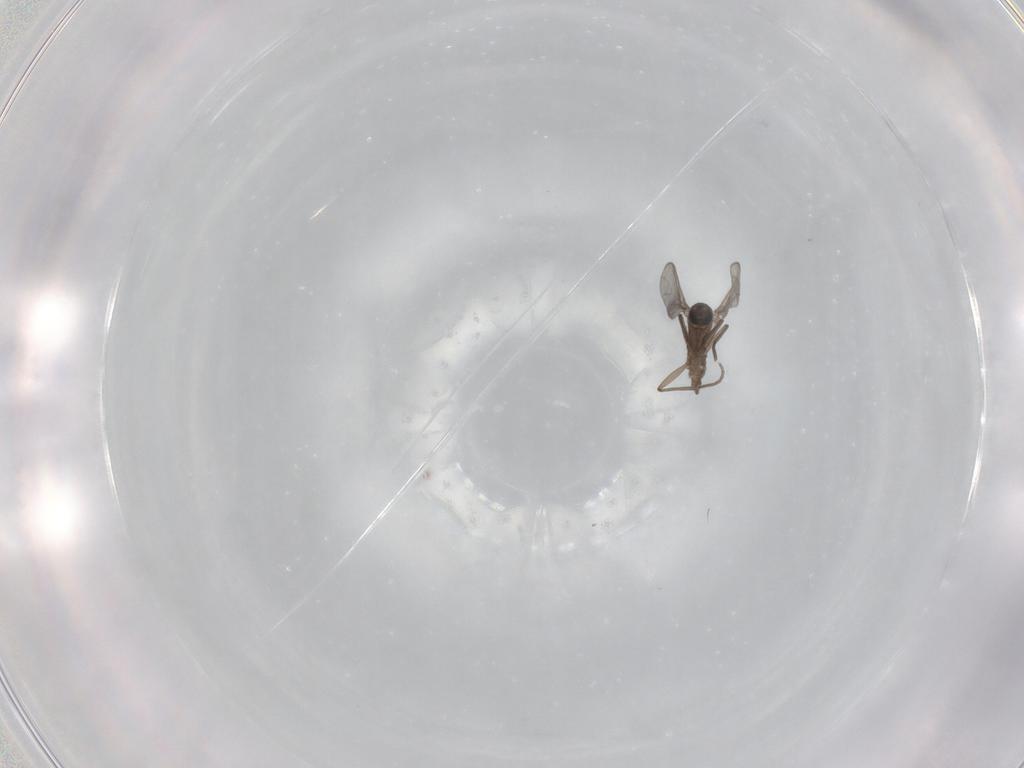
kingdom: Animalia
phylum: Arthropoda
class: Insecta
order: Diptera
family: Sciaridae
